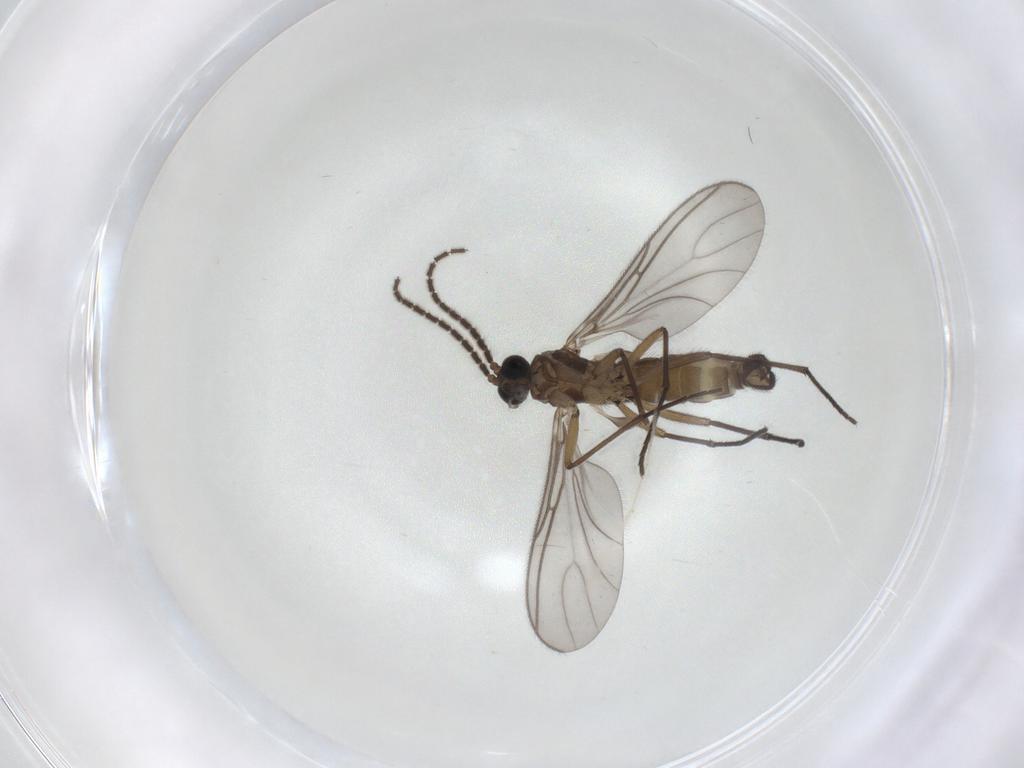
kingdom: Animalia
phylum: Arthropoda
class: Insecta
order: Diptera
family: Sciaridae
